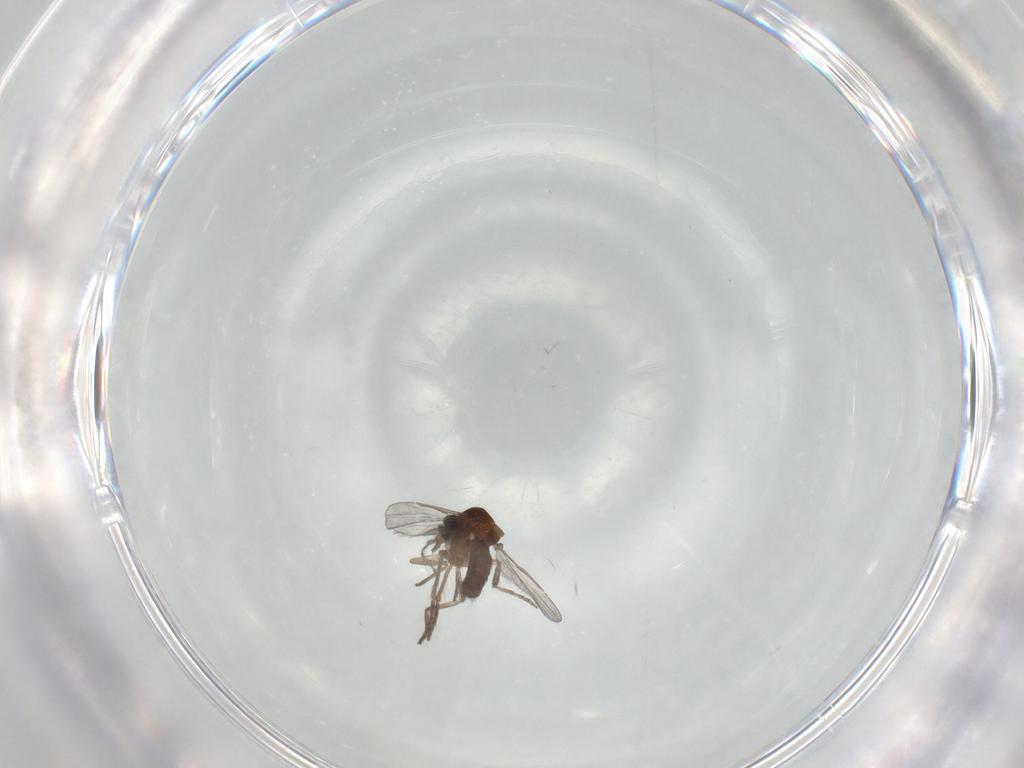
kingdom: Animalia
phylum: Arthropoda
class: Insecta
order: Diptera
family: Ceratopogonidae
